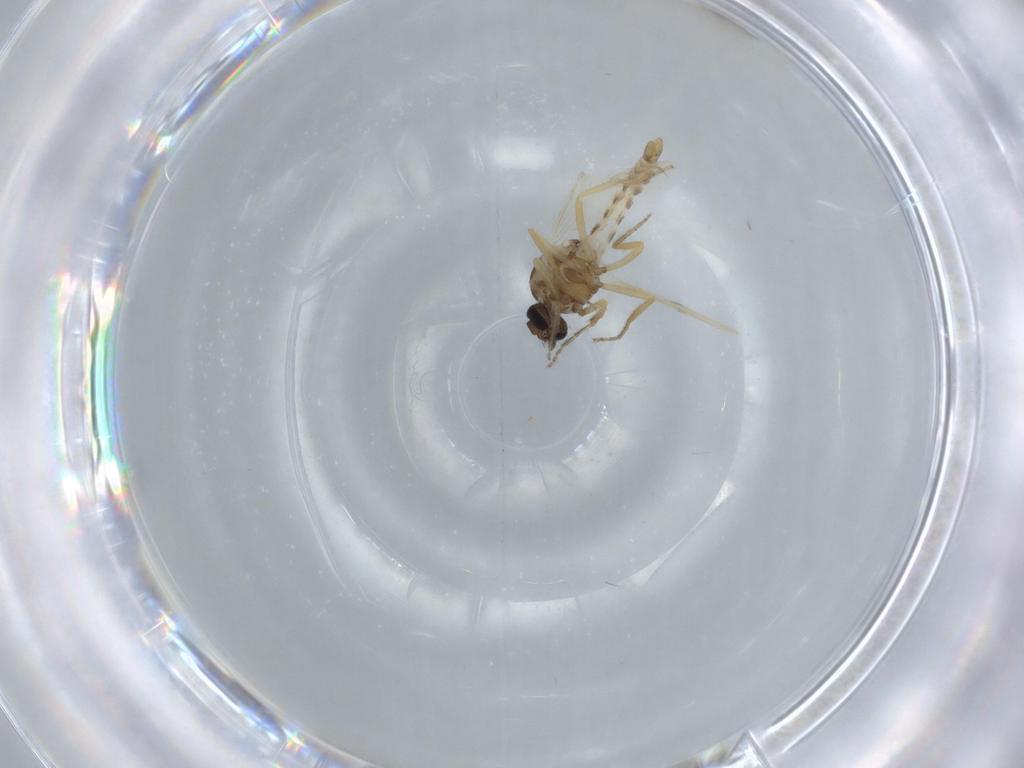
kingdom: Animalia
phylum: Arthropoda
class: Insecta
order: Diptera
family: Ceratopogonidae
